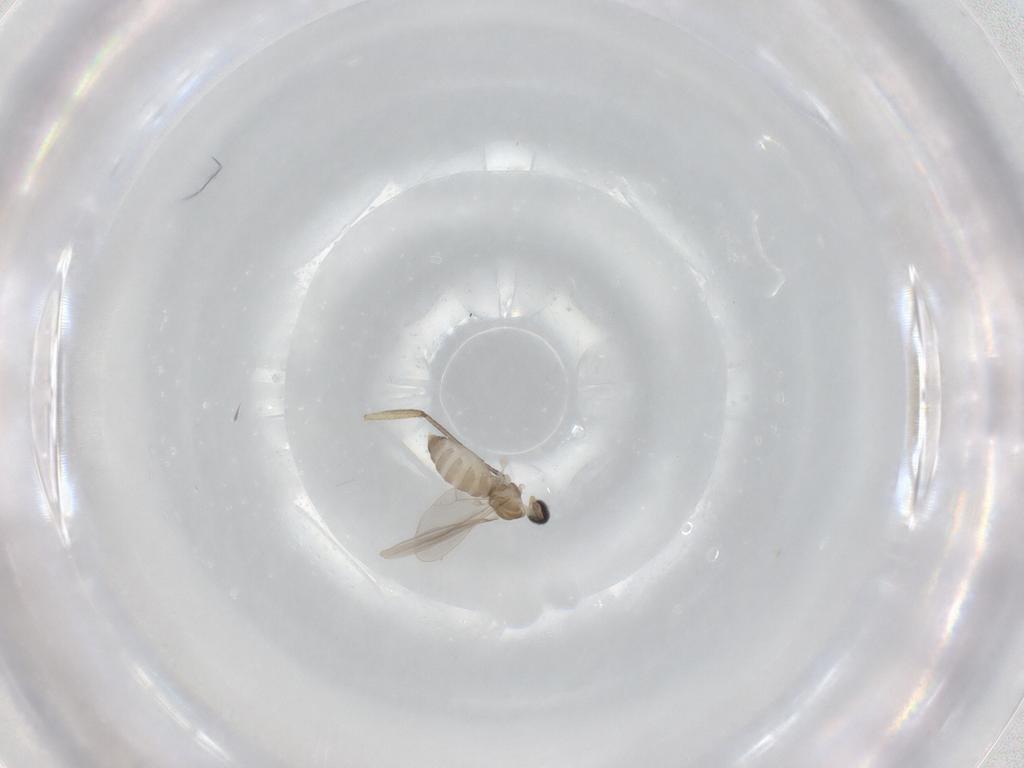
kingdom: Animalia
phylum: Arthropoda
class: Insecta
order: Diptera
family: Sciaridae
